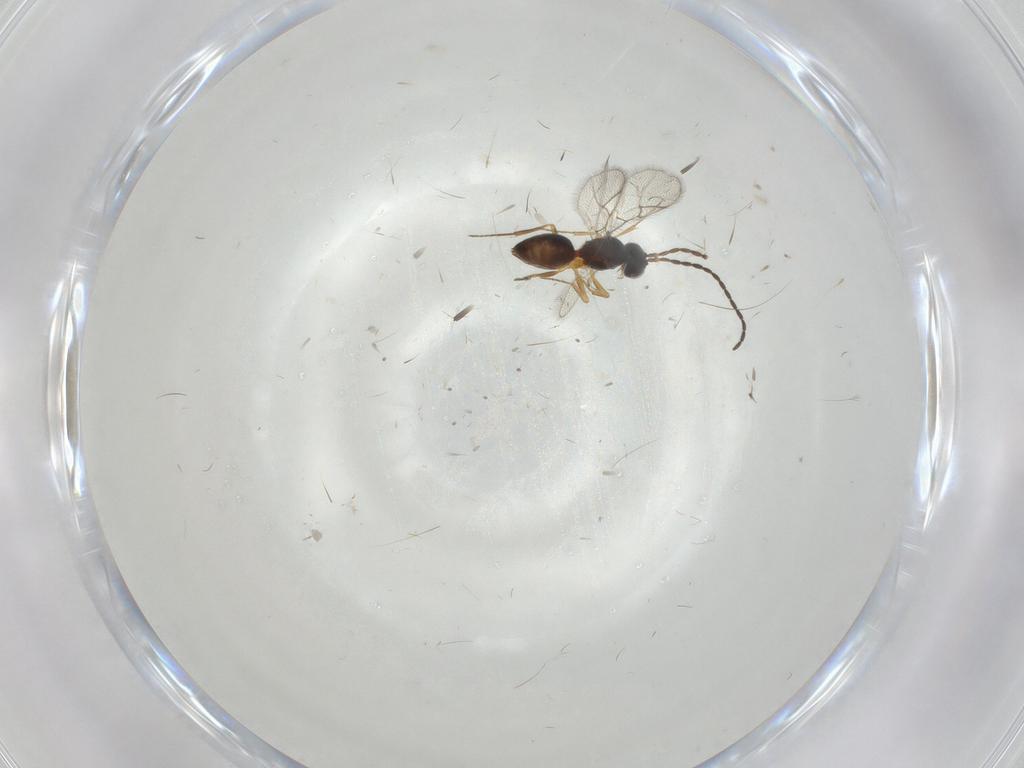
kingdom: Animalia
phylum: Arthropoda
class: Insecta
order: Hymenoptera
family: Figitidae
